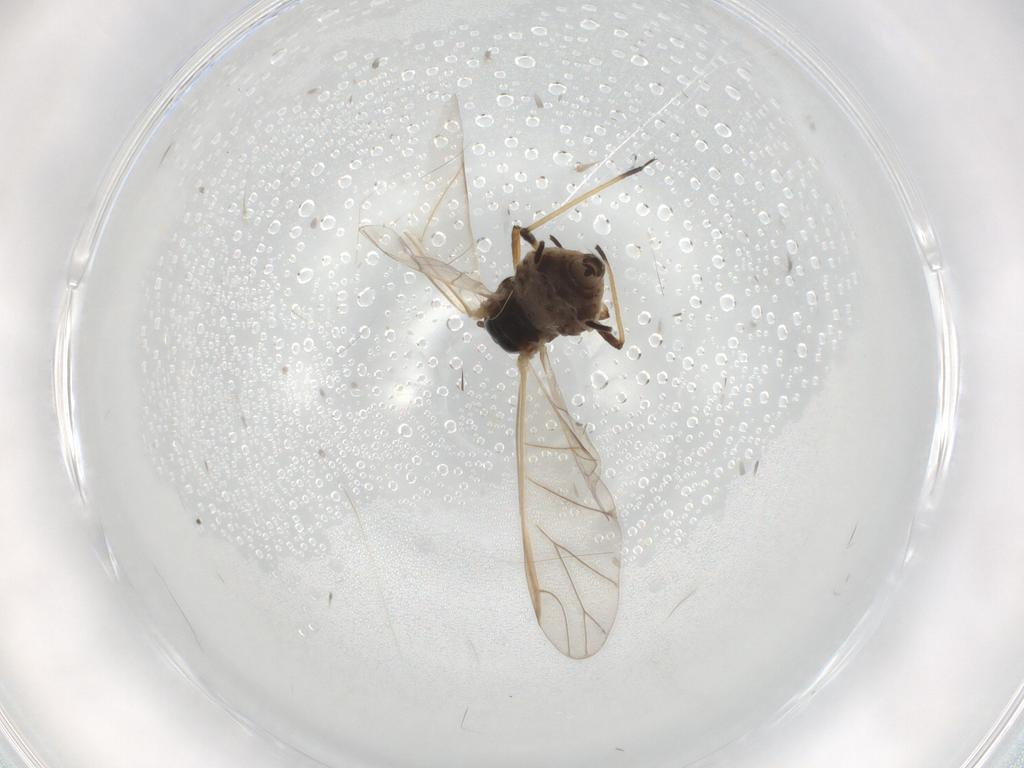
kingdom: Animalia
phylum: Arthropoda
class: Insecta
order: Hemiptera
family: Aphididae
